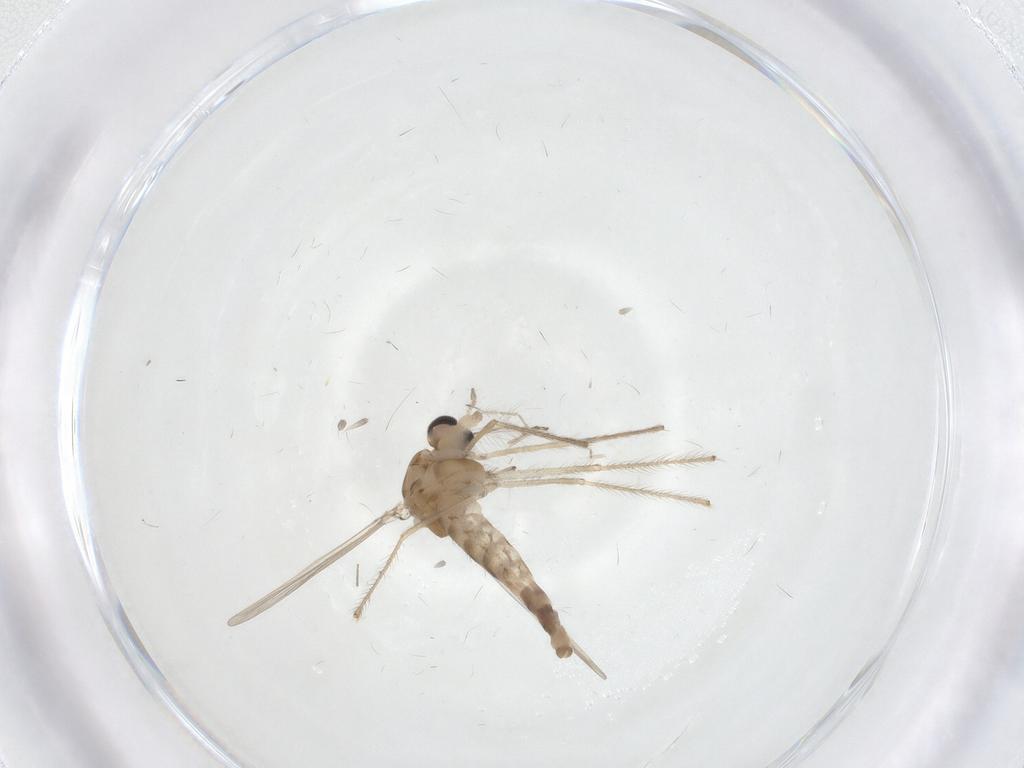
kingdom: Animalia
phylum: Arthropoda
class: Insecta
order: Diptera
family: Chironomidae
